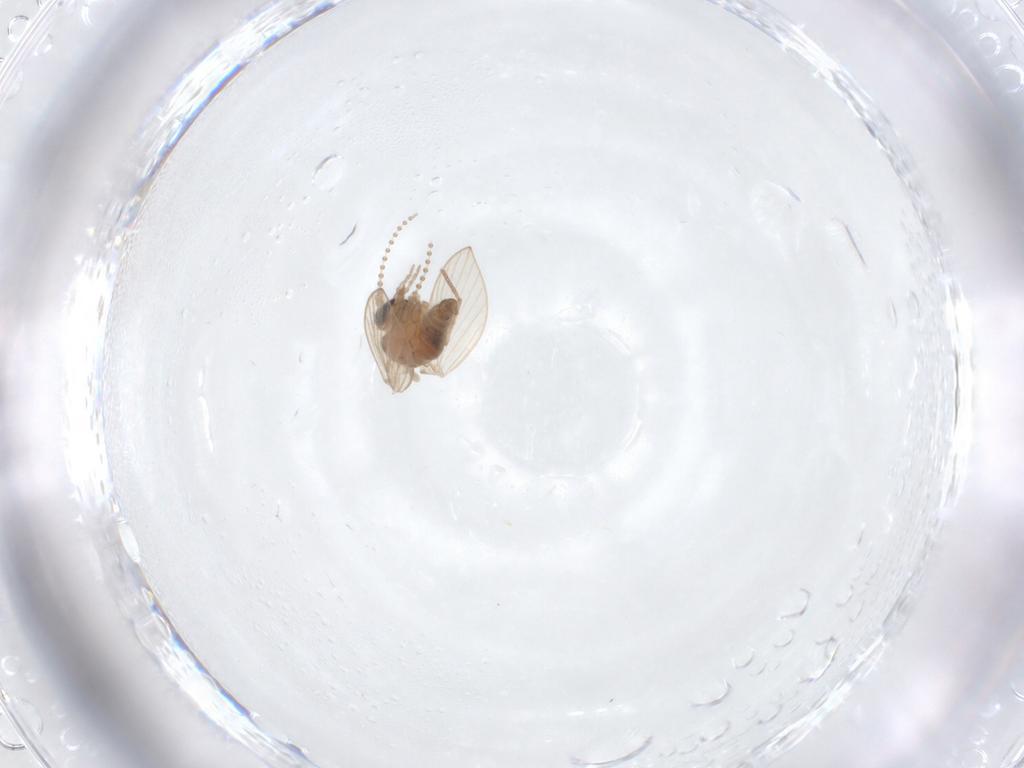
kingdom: Animalia
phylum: Arthropoda
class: Insecta
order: Diptera
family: Psychodidae
